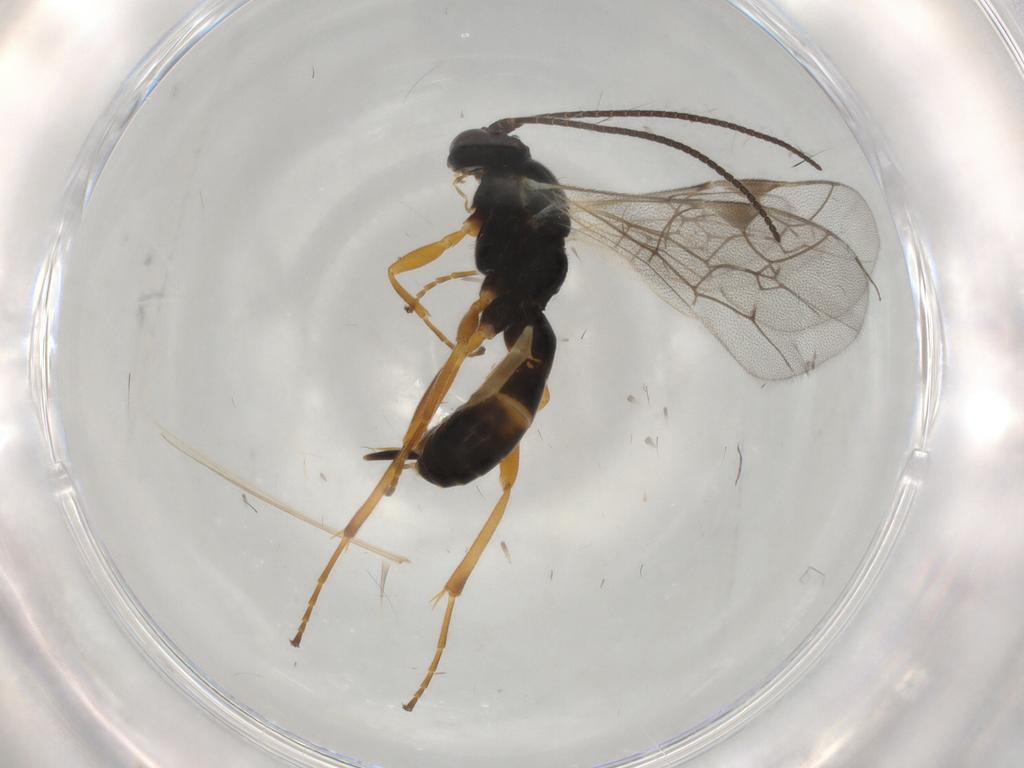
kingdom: Animalia
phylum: Arthropoda
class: Insecta
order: Hymenoptera
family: Ichneumonidae
